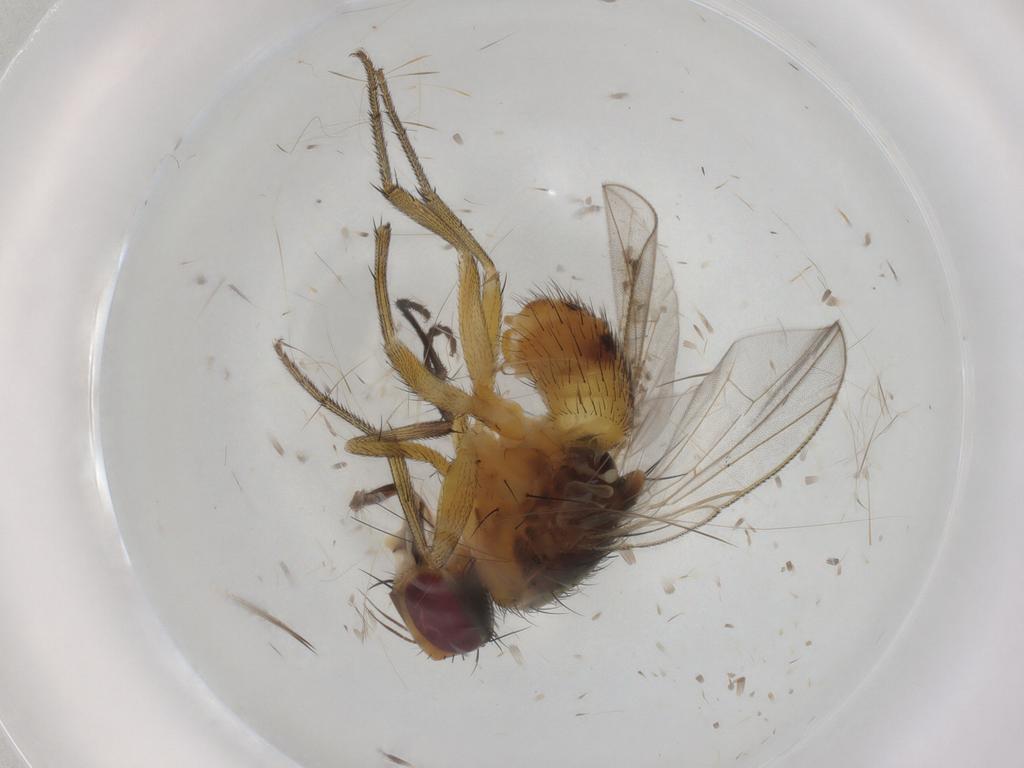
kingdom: Animalia
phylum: Arthropoda
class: Insecta
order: Diptera
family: Muscidae
